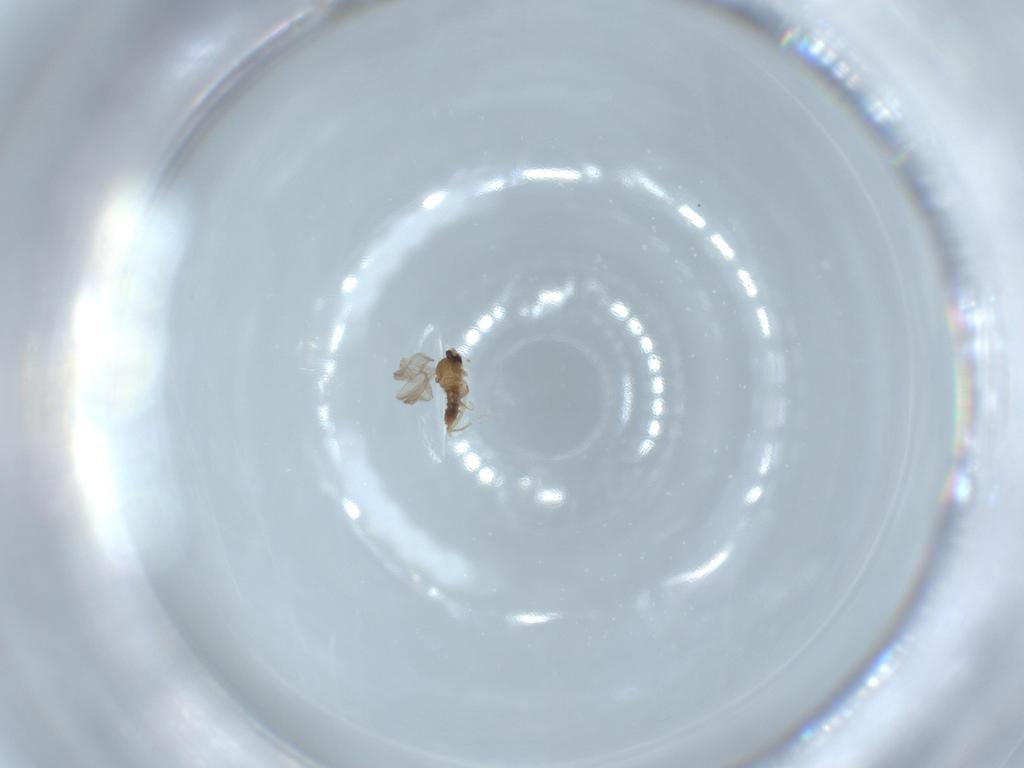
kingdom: Animalia
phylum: Arthropoda
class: Insecta
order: Diptera
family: Cecidomyiidae
